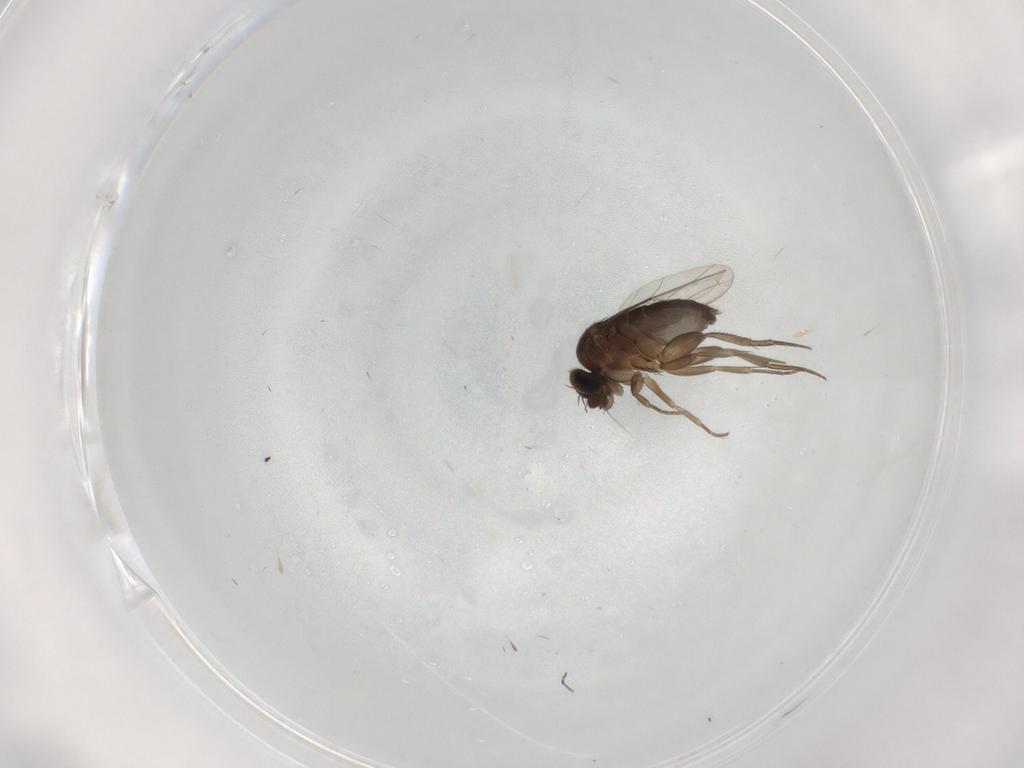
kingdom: Animalia
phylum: Arthropoda
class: Insecta
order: Diptera
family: Phoridae
